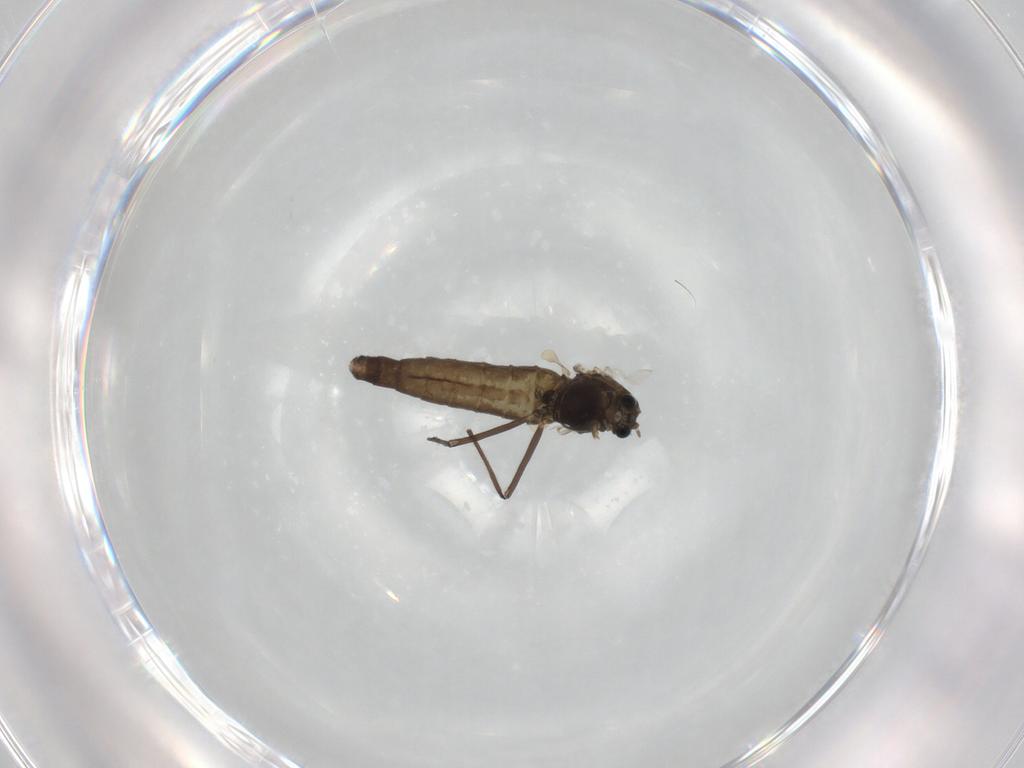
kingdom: Animalia
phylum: Arthropoda
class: Insecta
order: Diptera
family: Chironomidae
